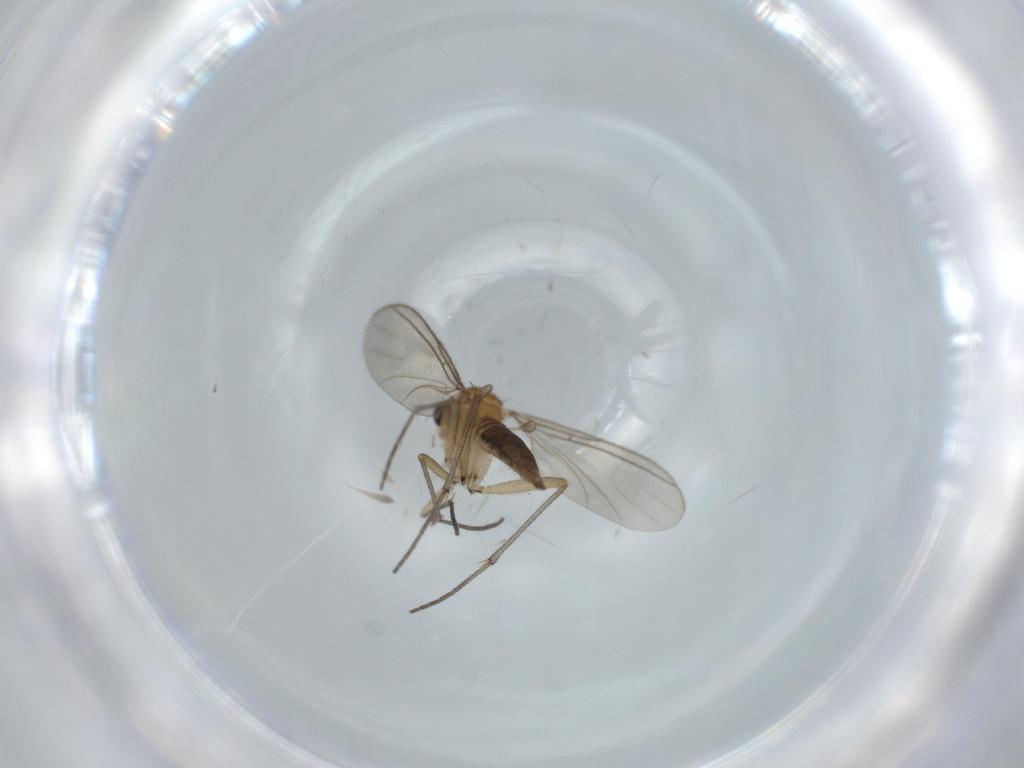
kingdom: Animalia
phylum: Arthropoda
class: Insecta
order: Diptera
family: Sciaridae
